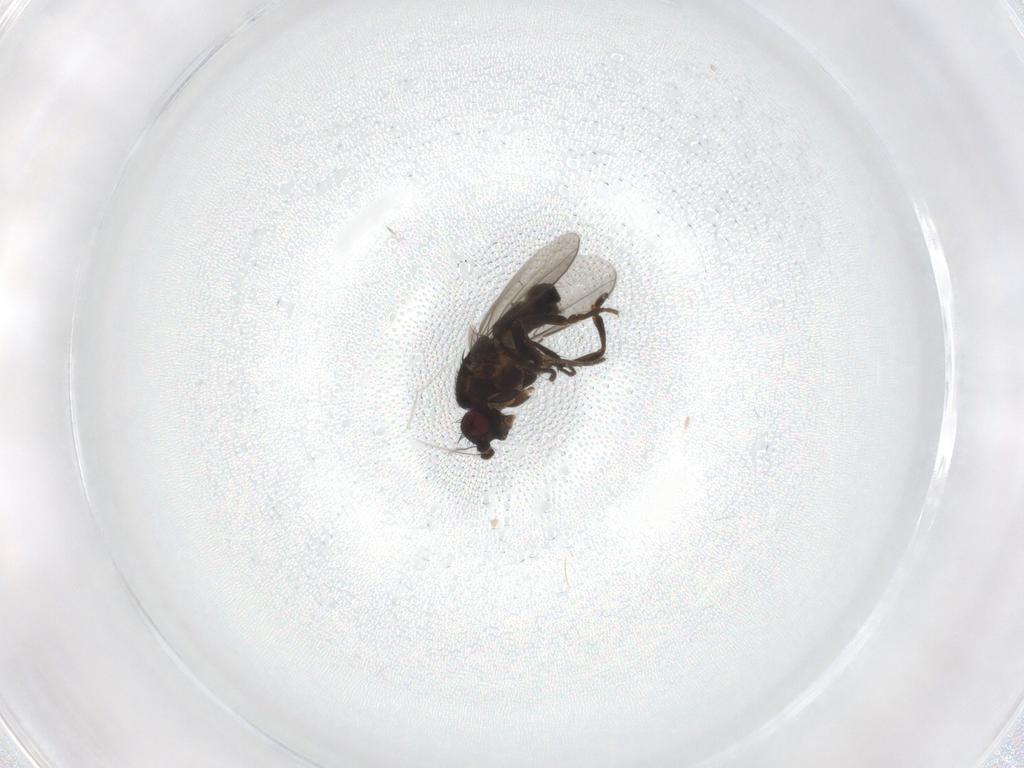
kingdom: Animalia
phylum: Arthropoda
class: Insecta
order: Diptera
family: Sphaeroceridae
